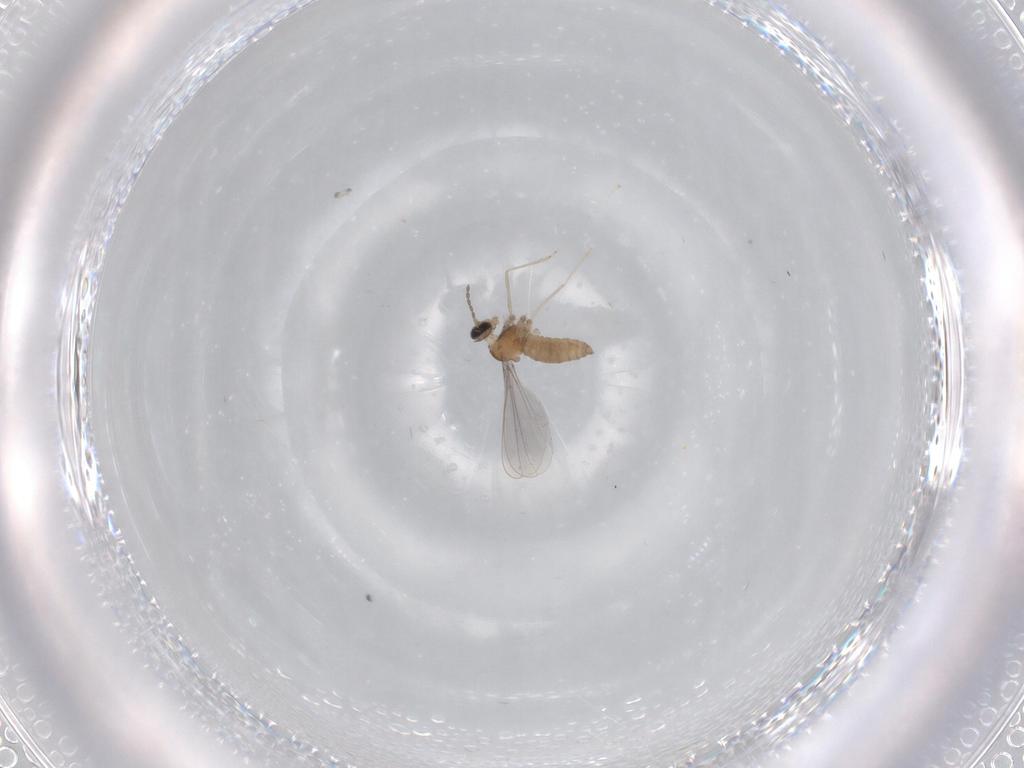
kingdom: Animalia
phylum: Arthropoda
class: Insecta
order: Diptera
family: Cecidomyiidae
